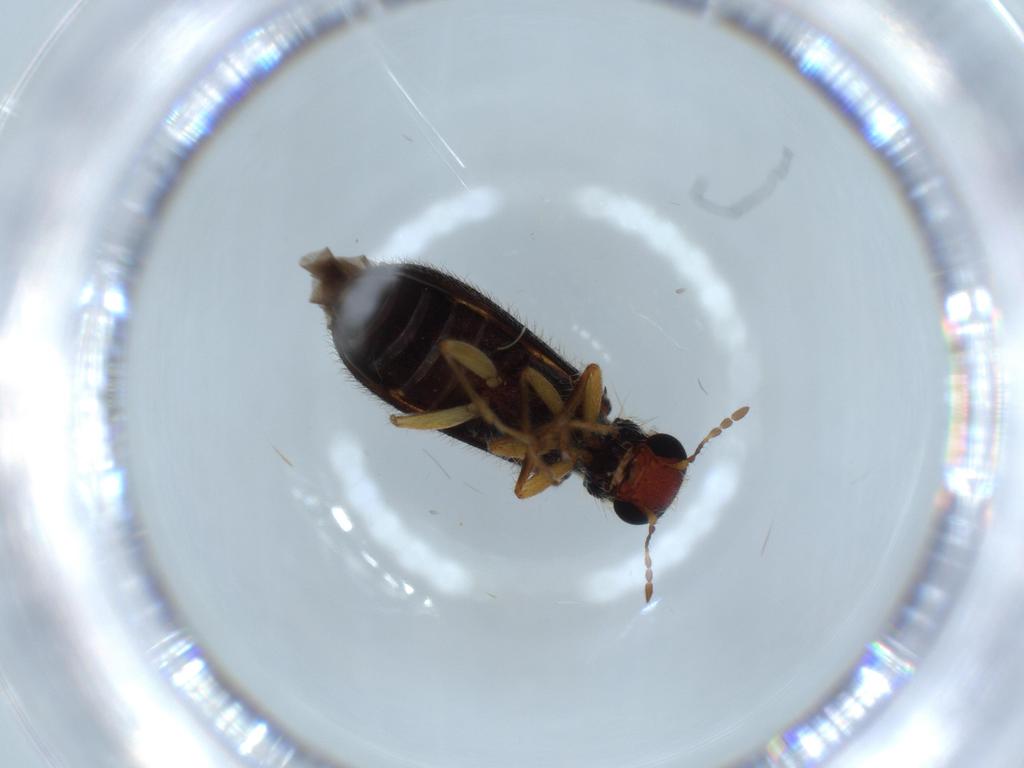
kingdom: Animalia
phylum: Arthropoda
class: Insecta
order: Coleoptera
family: Cleridae
